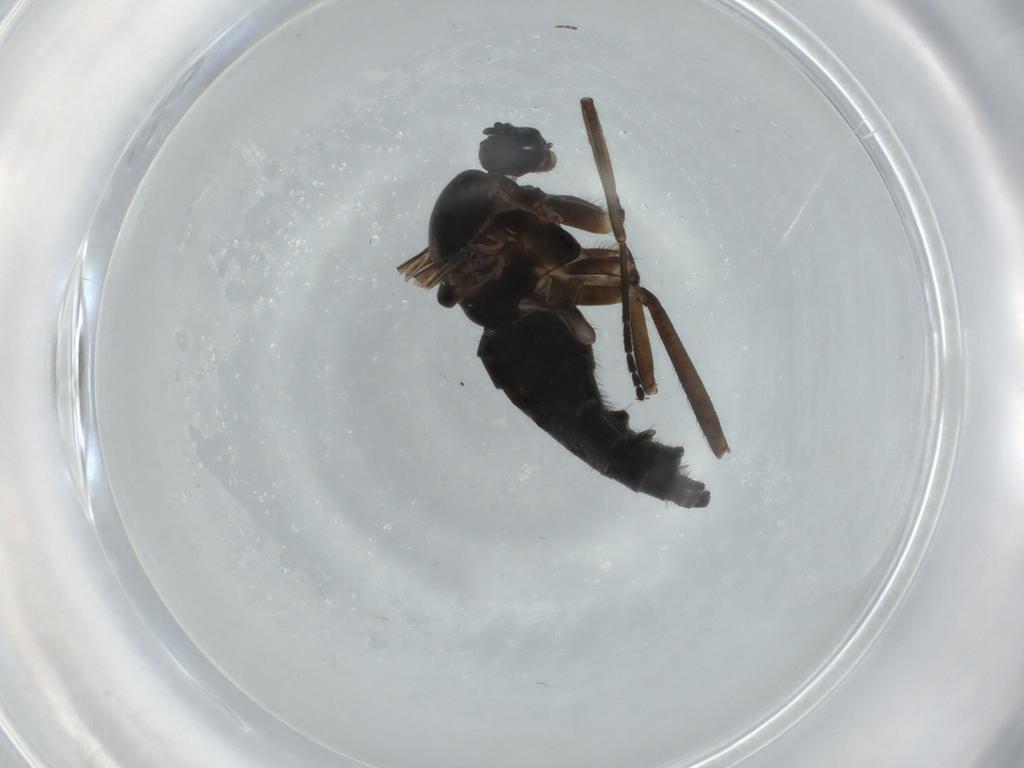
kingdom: Animalia
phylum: Arthropoda
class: Insecta
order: Diptera
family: Sciaridae
